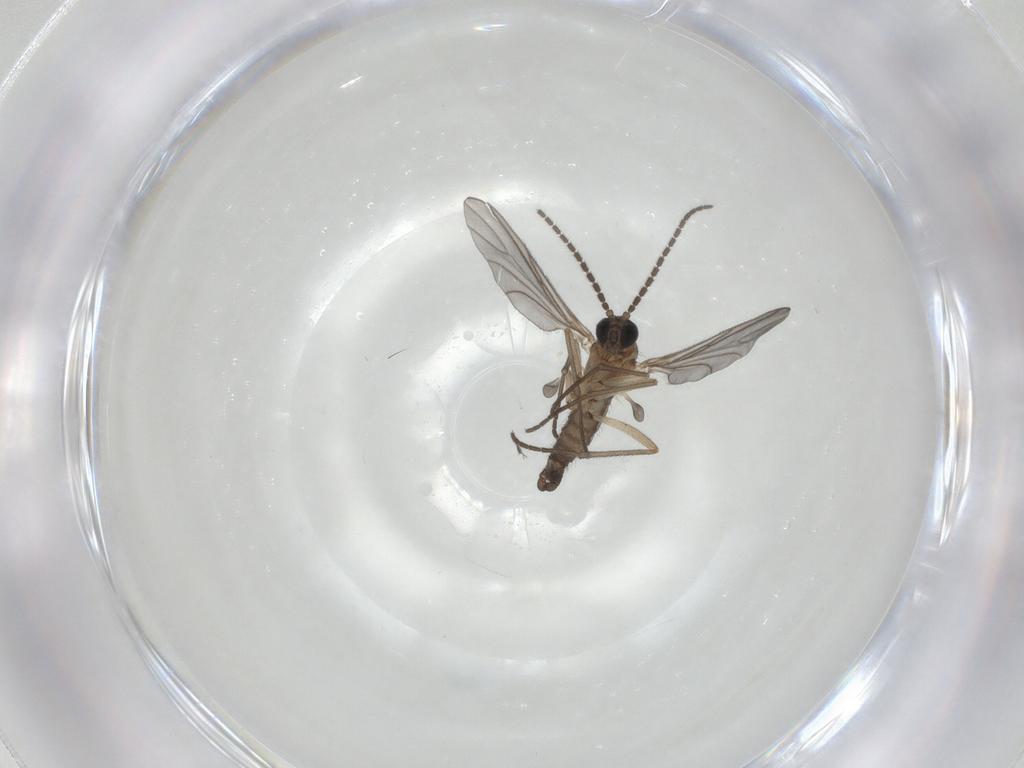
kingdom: Animalia
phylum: Arthropoda
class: Insecta
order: Diptera
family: Sciaridae
